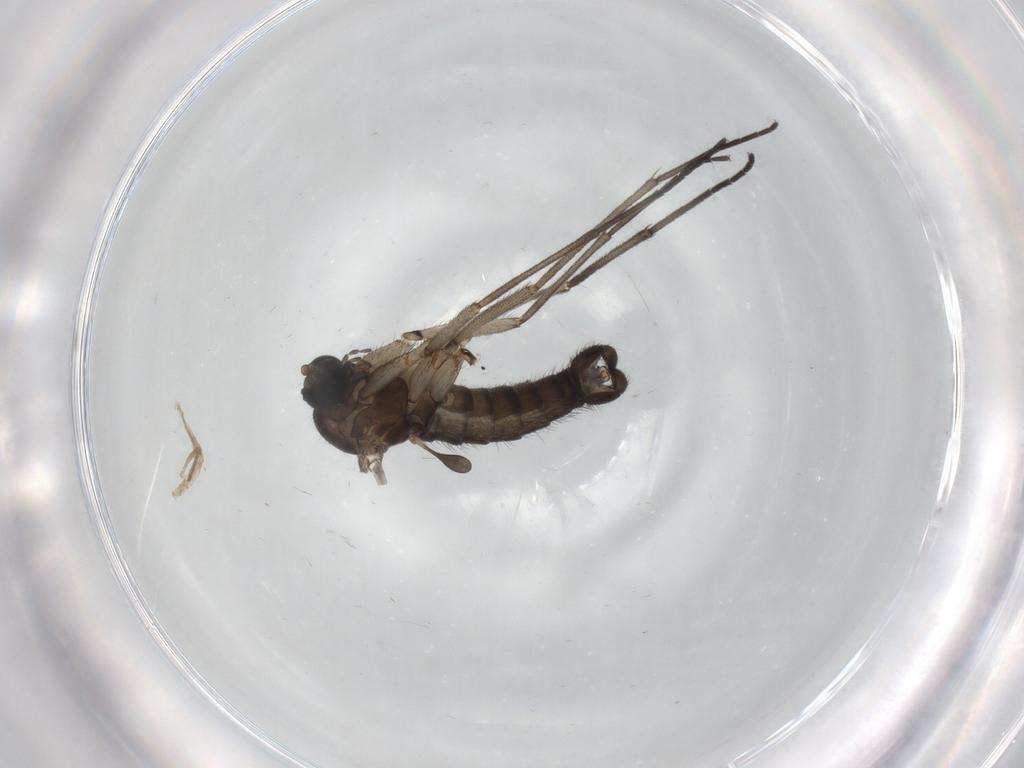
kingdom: Animalia
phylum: Arthropoda
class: Insecta
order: Diptera
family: Sciaridae
